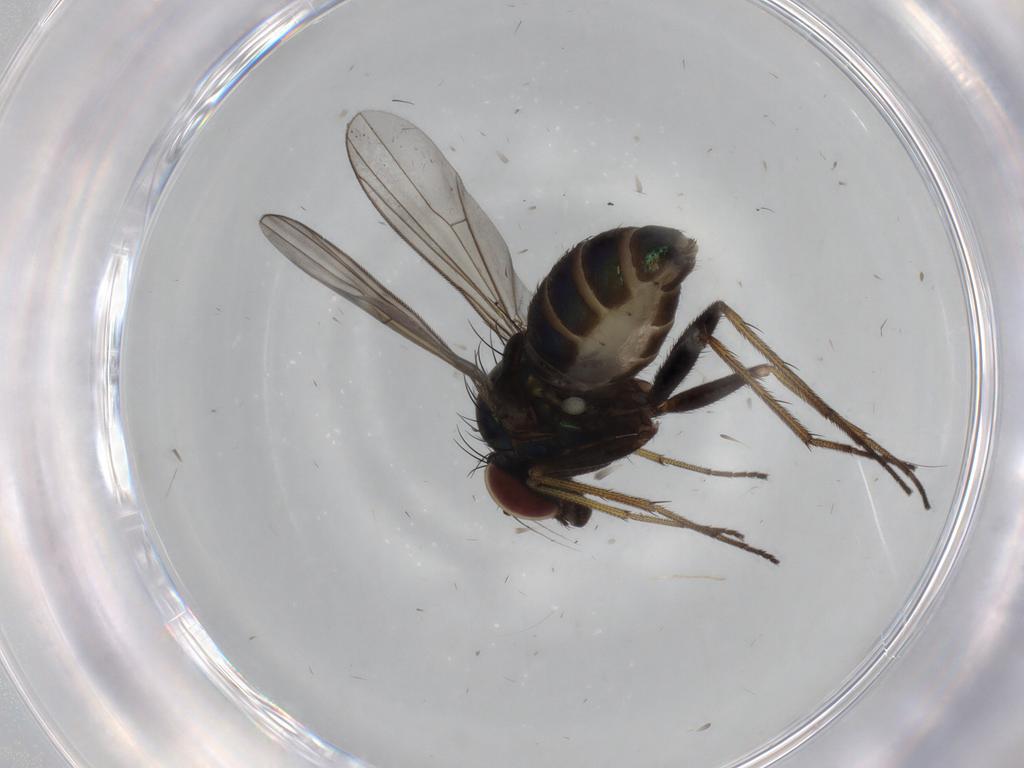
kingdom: Animalia
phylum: Arthropoda
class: Insecta
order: Diptera
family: Dolichopodidae
